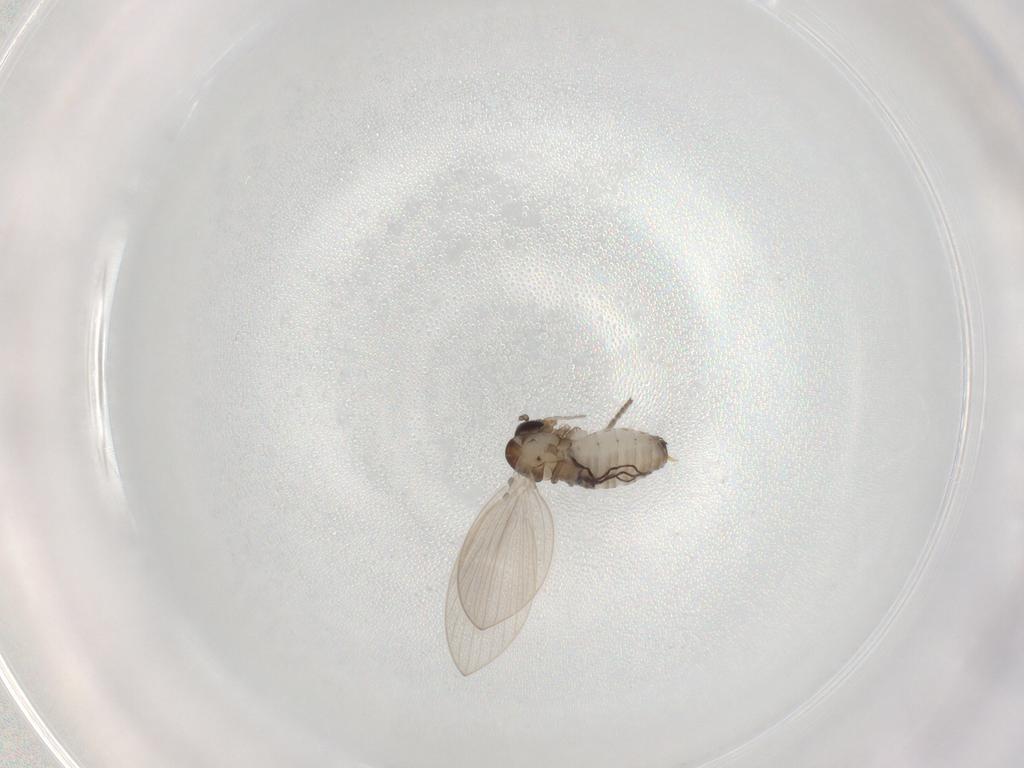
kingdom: Animalia
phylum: Arthropoda
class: Insecta
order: Diptera
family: Psychodidae
